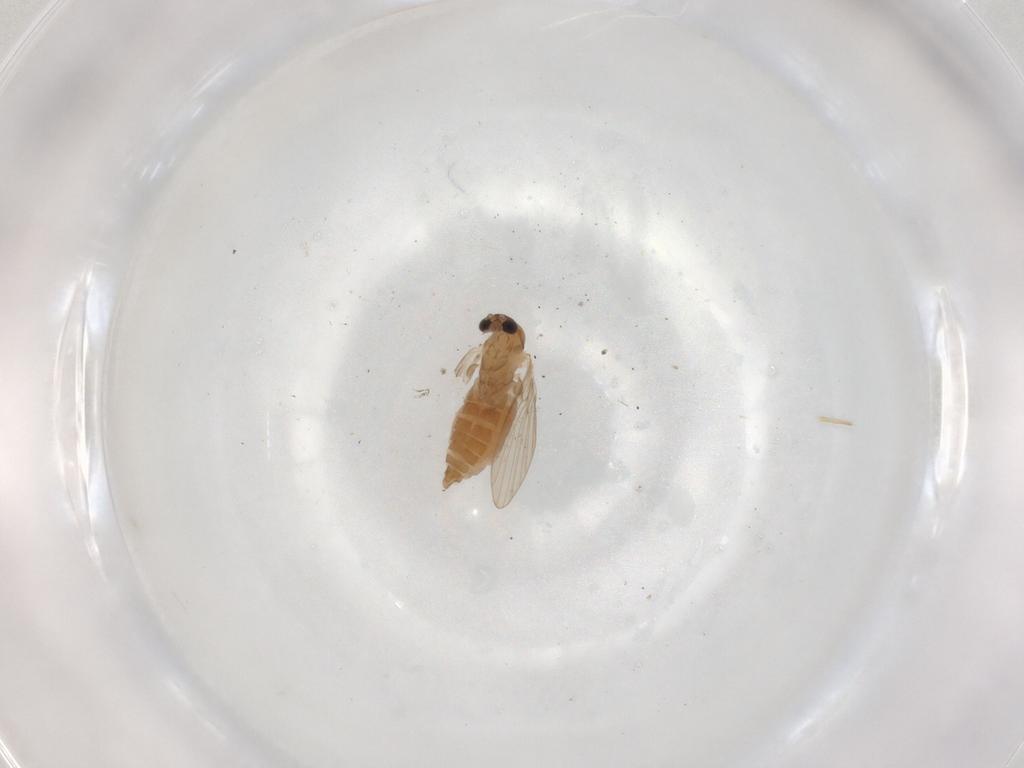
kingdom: Animalia
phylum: Arthropoda
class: Insecta
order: Diptera
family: Psychodidae
